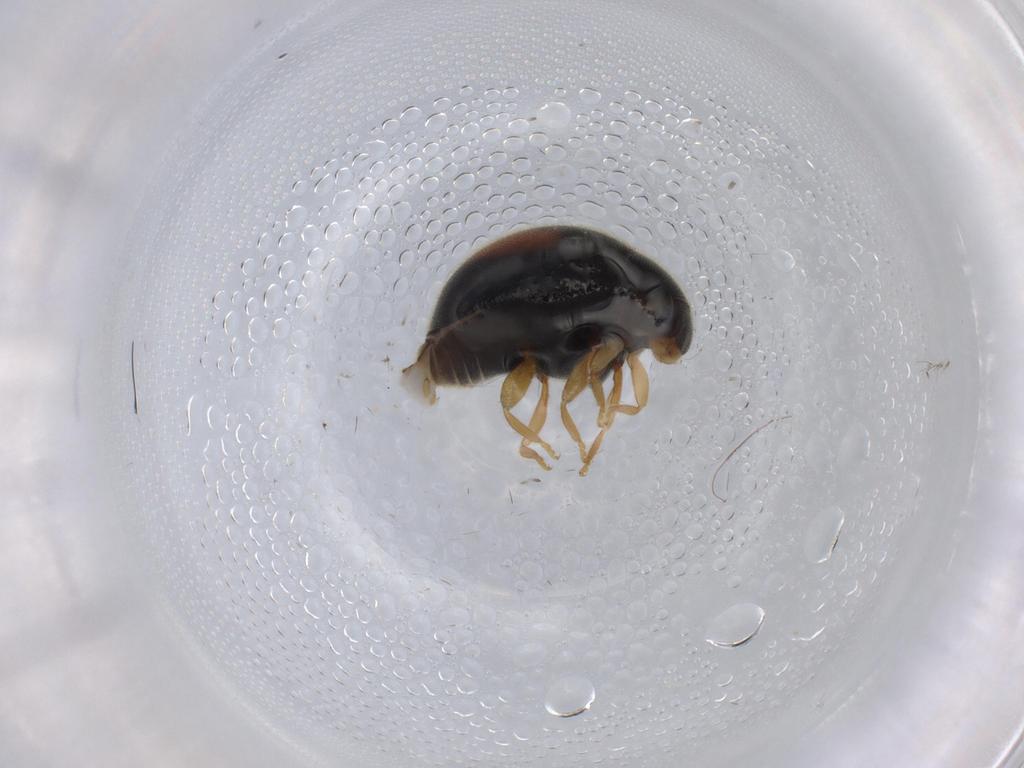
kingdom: Animalia
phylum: Arthropoda
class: Insecta
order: Coleoptera
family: Coccinellidae
